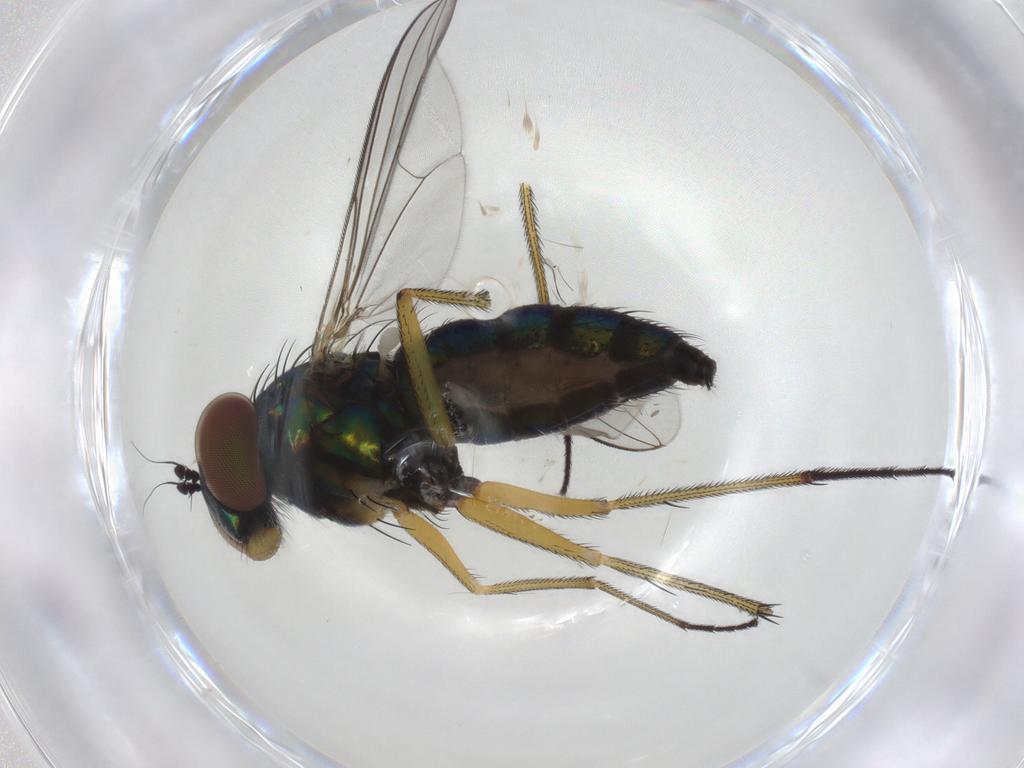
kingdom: Animalia
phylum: Arthropoda
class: Insecta
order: Diptera
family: Dolichopodidae
